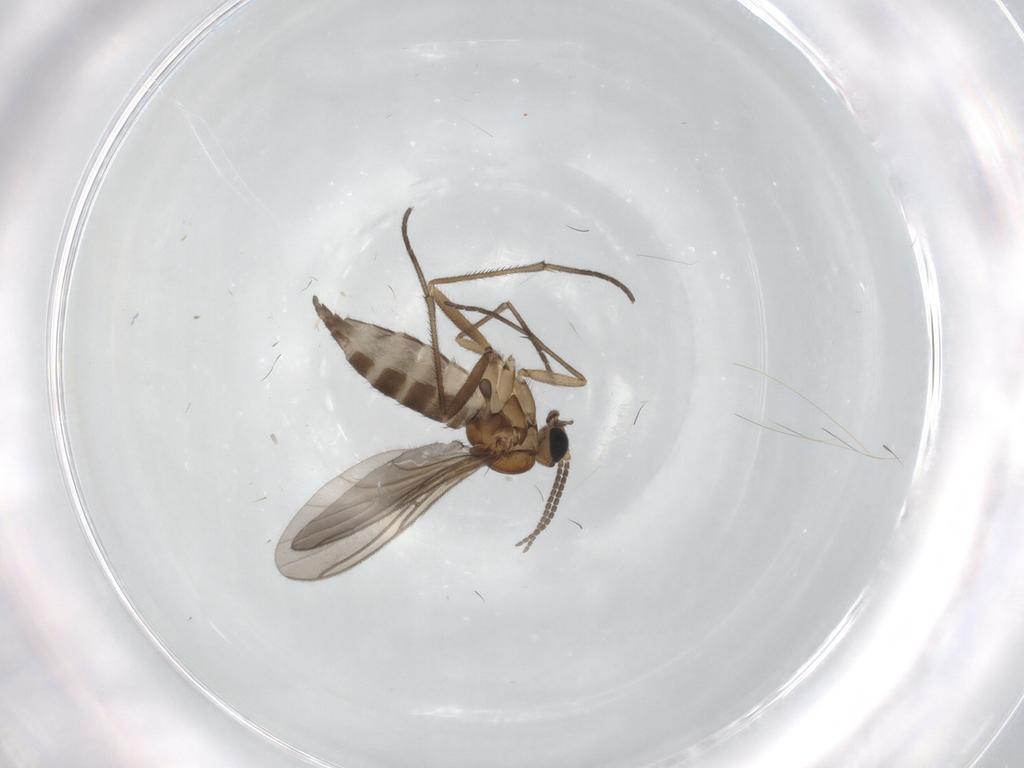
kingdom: Animalia
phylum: Arthropoda
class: Insecta
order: Diptera
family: Sciaridae
